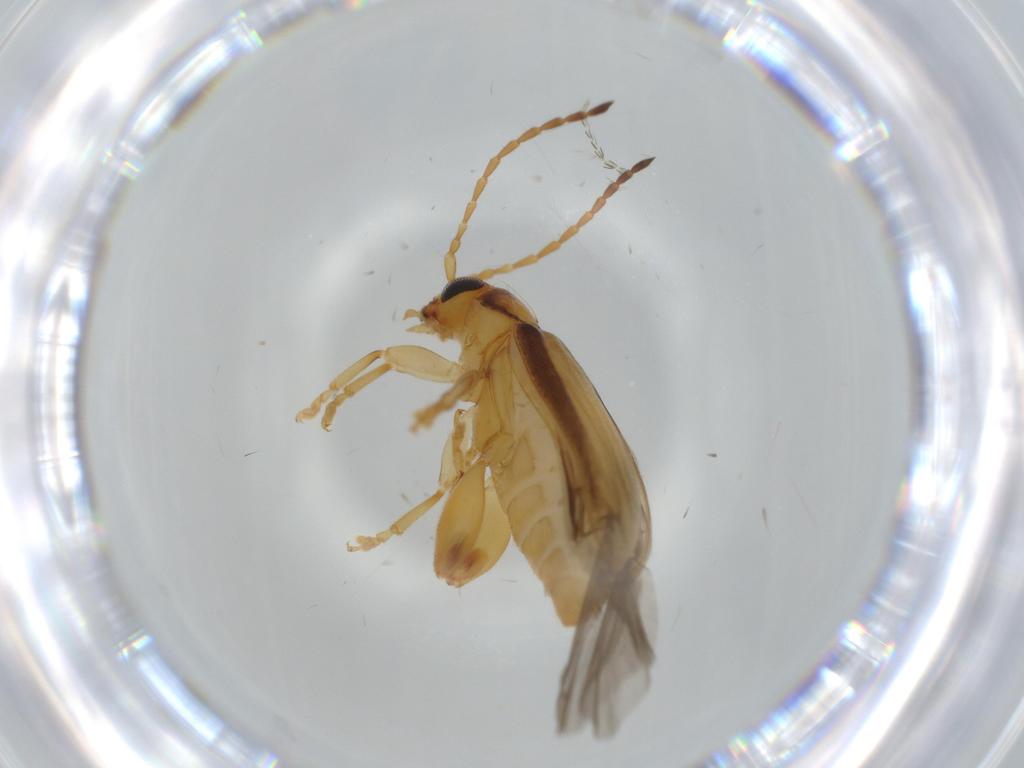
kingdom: Animalia
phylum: Arthropoda
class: Insecta
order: Coleoptera
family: Chrysomelidae
